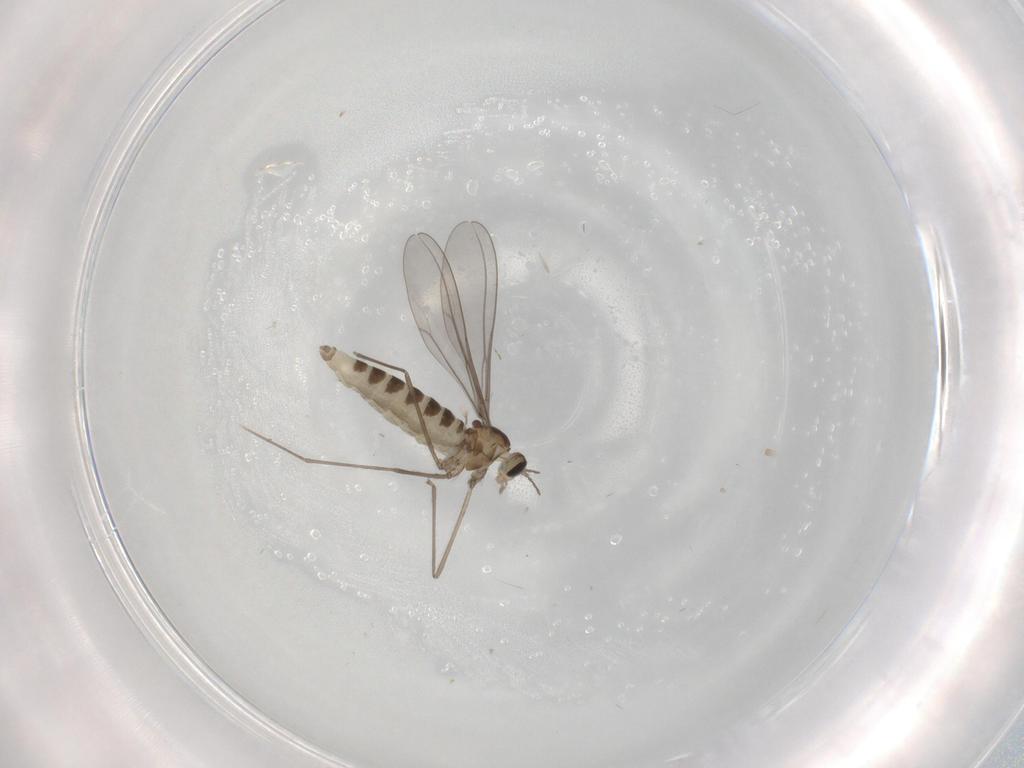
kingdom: Animalia
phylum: Arthropoda
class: Insecta
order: Diptera
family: Cecidomyiidae
